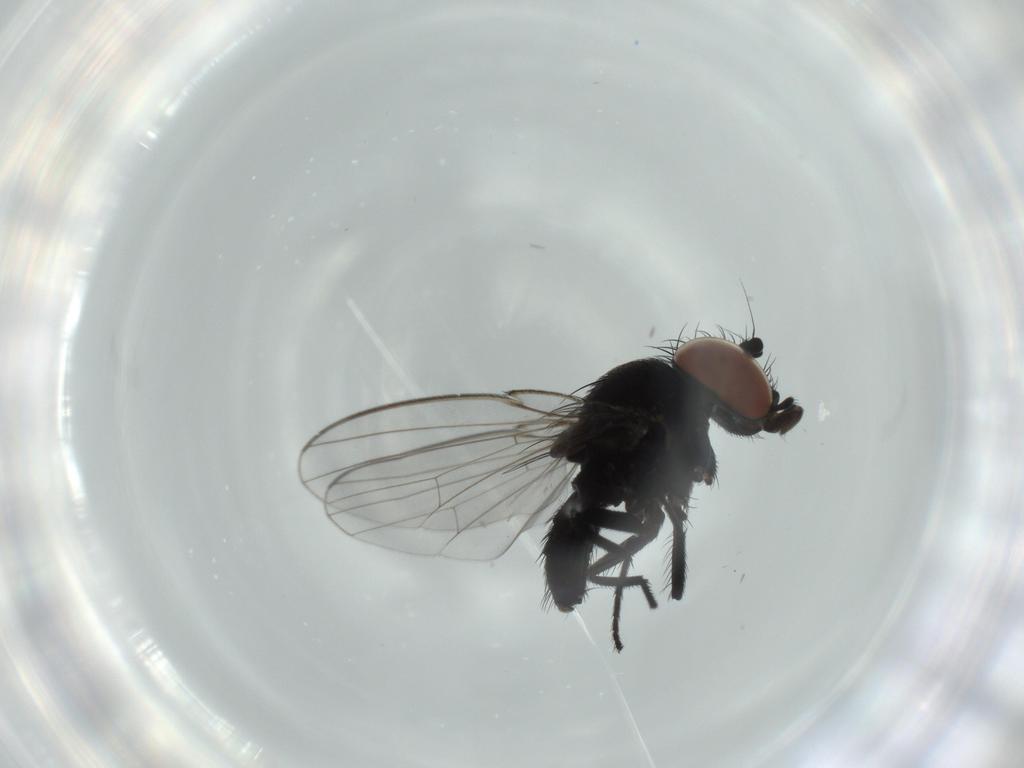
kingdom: Animalia
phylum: Arthropoda
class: Insecta
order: Diptera
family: Milichiidae
